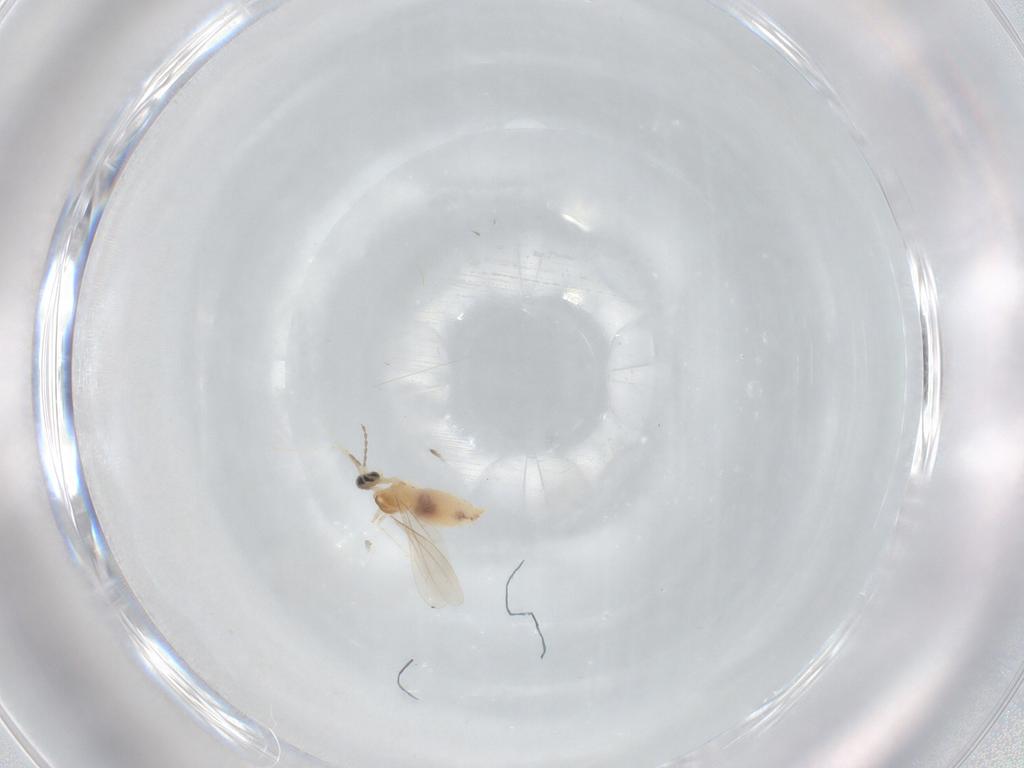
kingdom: Animalia
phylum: Arthropoda
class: Insecta
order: Diptera
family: Cecidomyiidae
